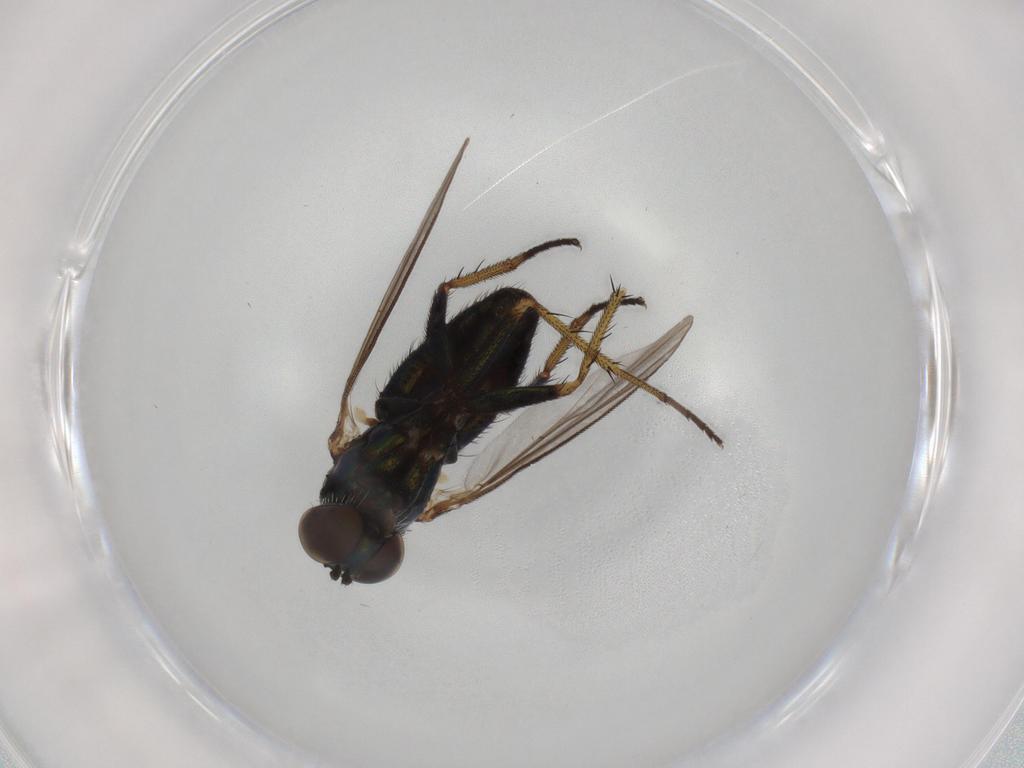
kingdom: Animalia
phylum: Arthropoda
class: Insecta
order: Diptera
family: Dolichopodidae
